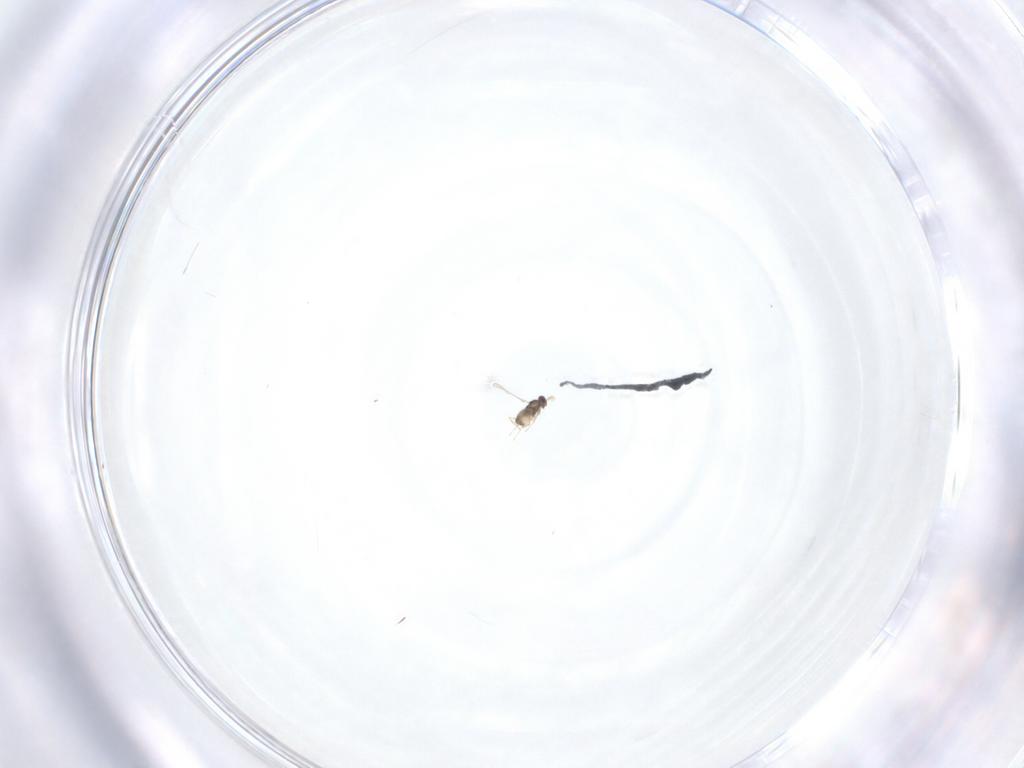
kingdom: Animalia
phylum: Arthropoda
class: Insecta
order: Hymenoptera
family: Mymaridae
